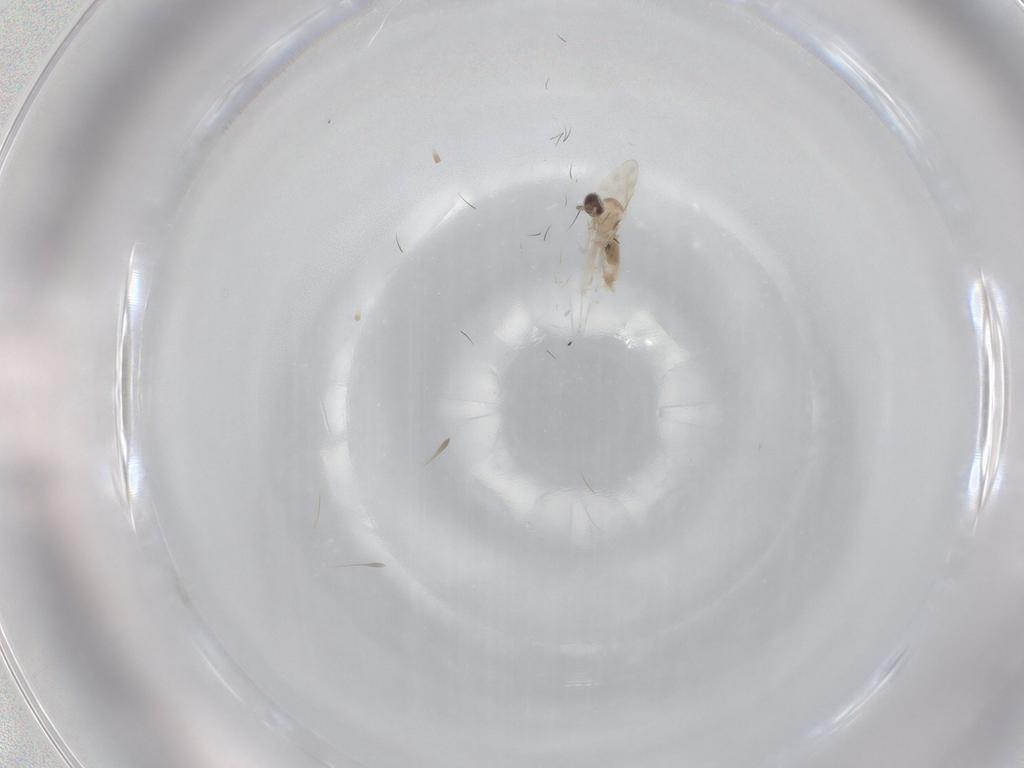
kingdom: Animalia
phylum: Arthropoda
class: Insecta
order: Diptera
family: Cecidomyiidae
